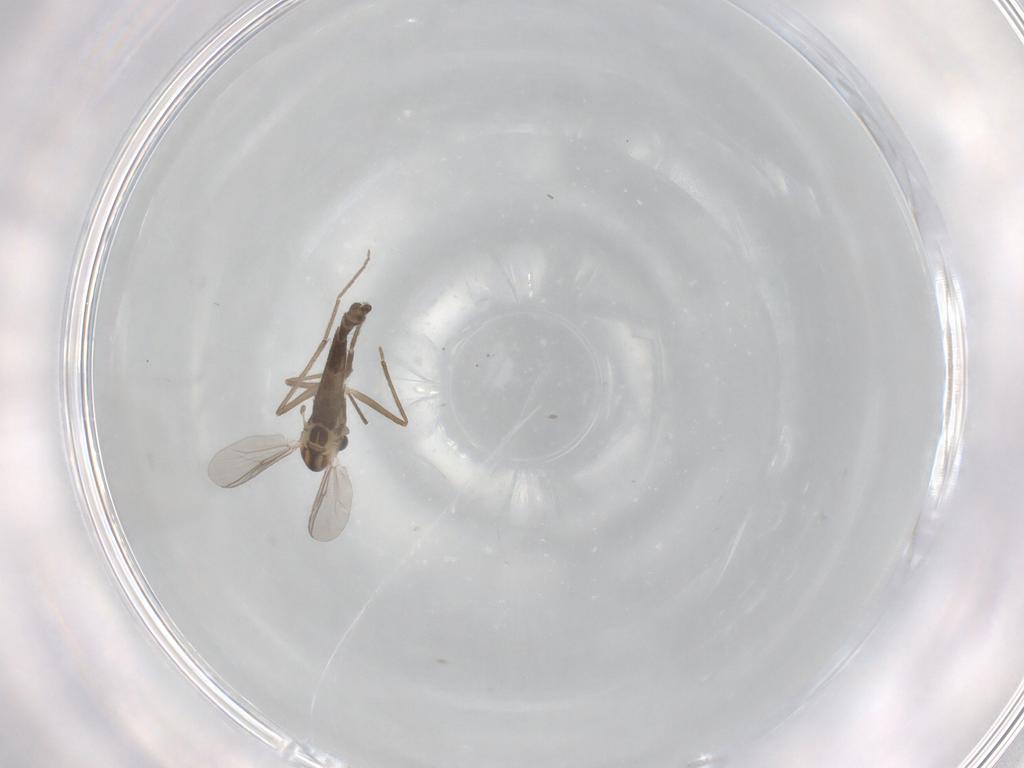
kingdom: Animalia
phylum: Arthropoda
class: Insecta
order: Diptera
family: Chironomidae
